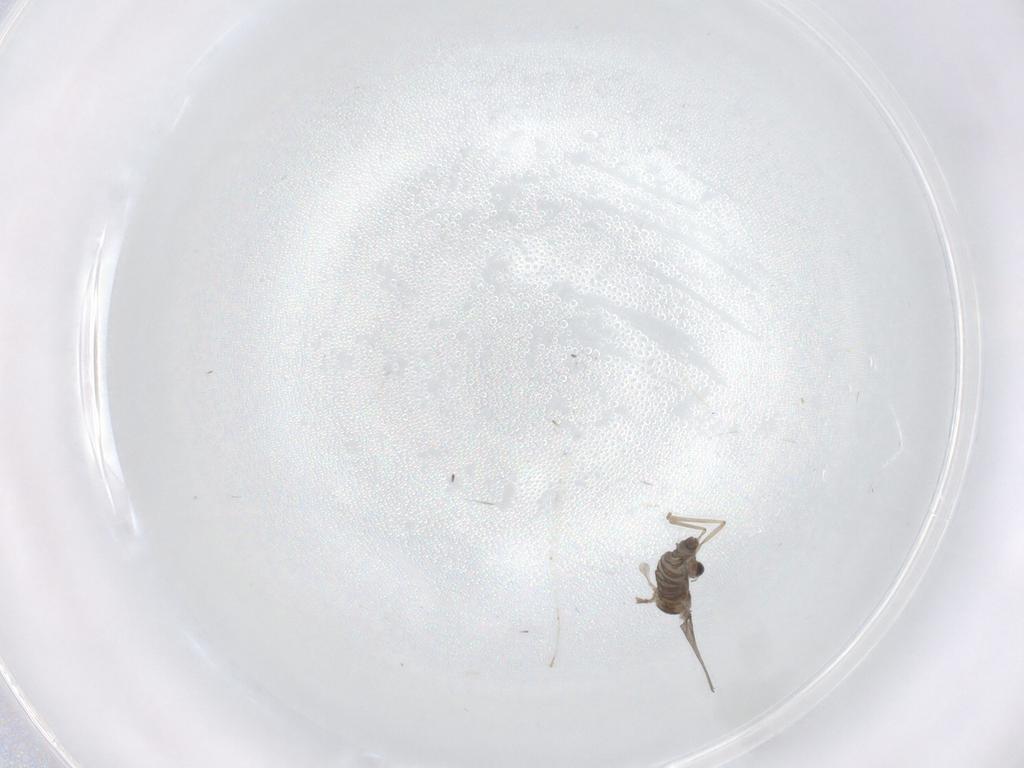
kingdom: Animalia
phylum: Arthropoda
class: Insecta
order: Diptera
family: Cecidomyiidae
